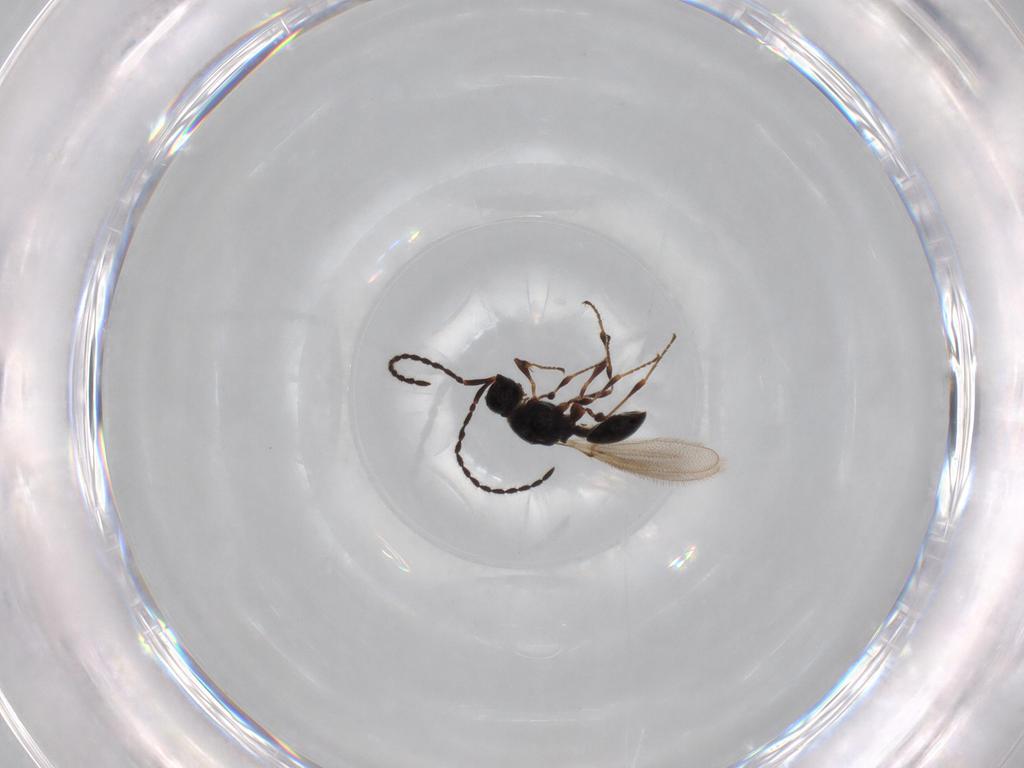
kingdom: Animalia
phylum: Arthropoda
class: Insecta
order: Hymenoptera
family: Diapriidae
